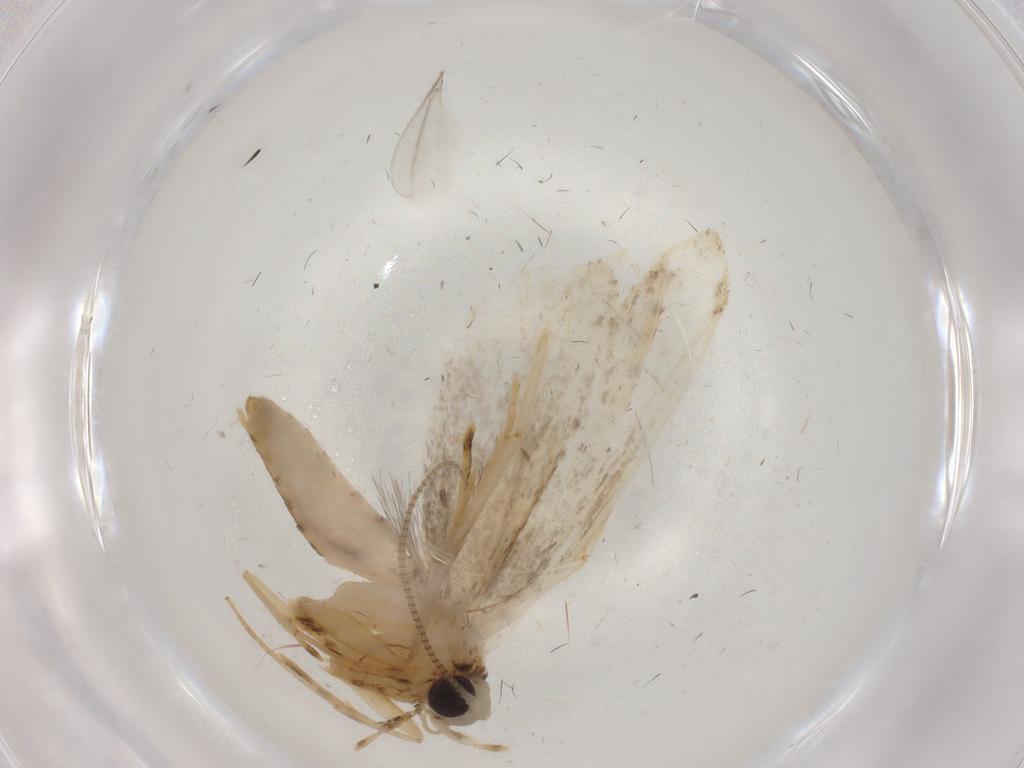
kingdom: Animalia
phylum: Arthropoda
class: Insecta
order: Lepidoptera
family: Tineidae
